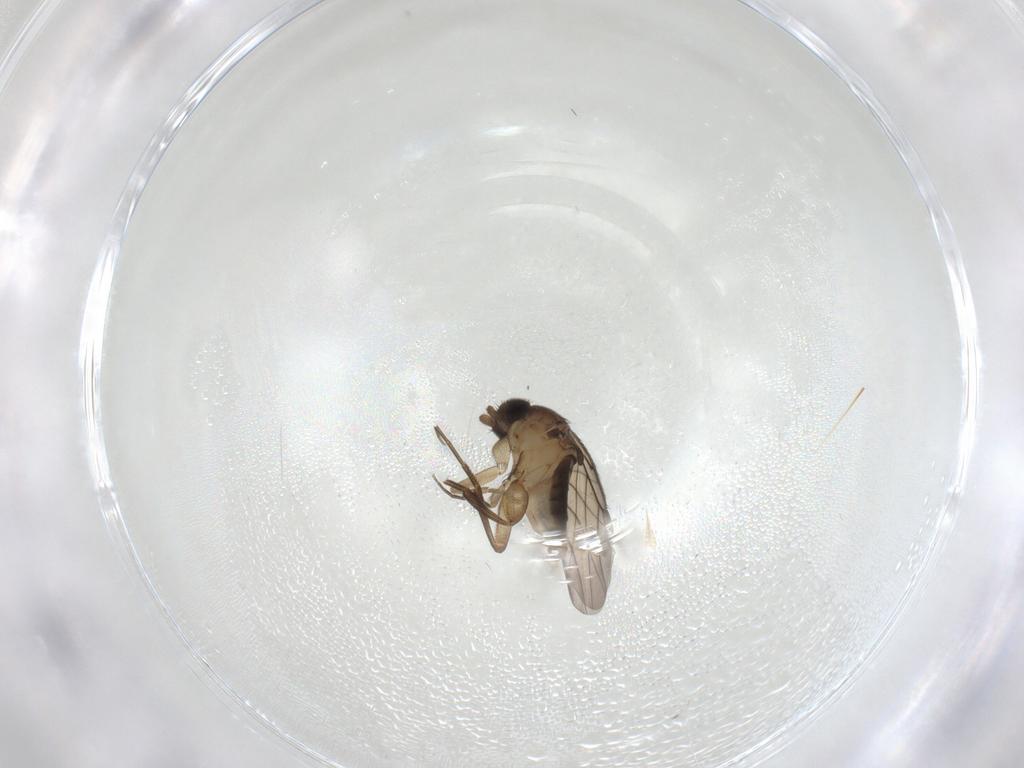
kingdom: Animalia
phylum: Arthropoda
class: Insecta
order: Diptera
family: Phoridae
